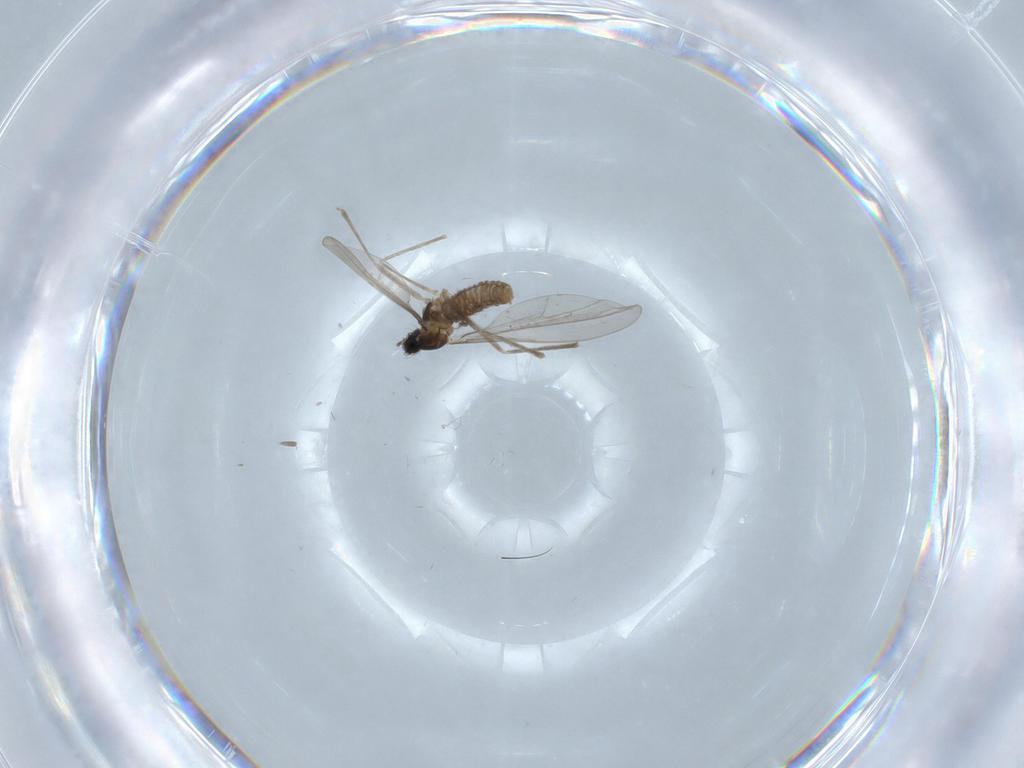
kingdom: Animalia
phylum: Arthropoda
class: Insecta
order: Diptera
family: Cecidomyiidae
